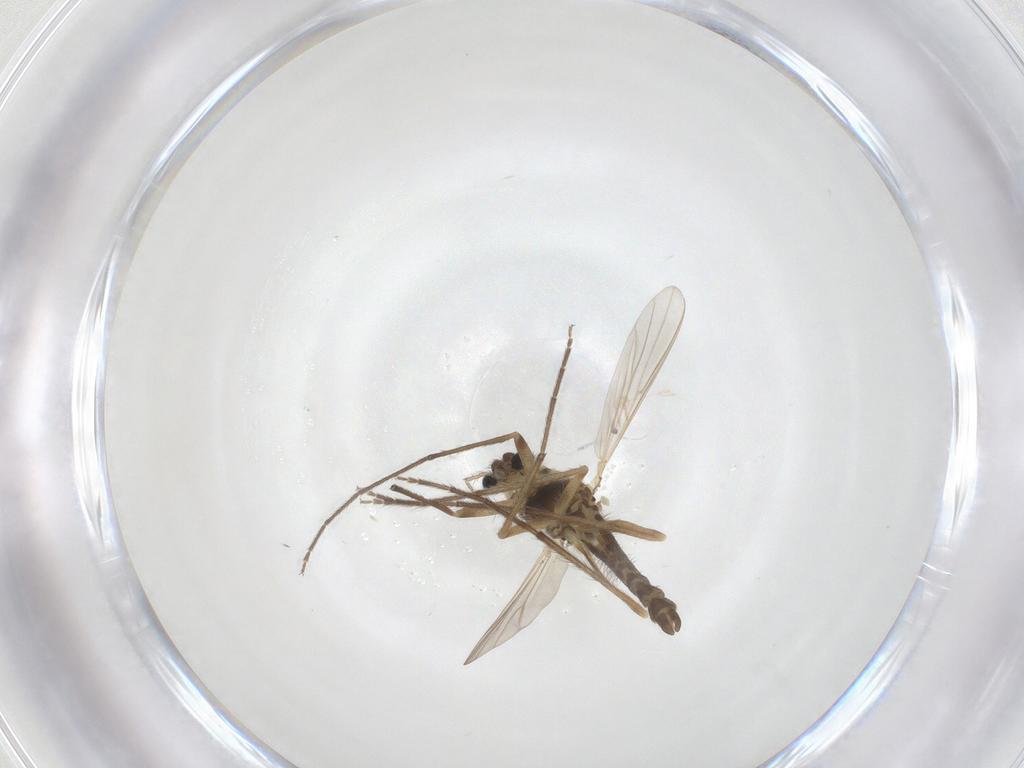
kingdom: Animalia
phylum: Arthropoda
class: Insecta
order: Diptera
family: Chironomidae
